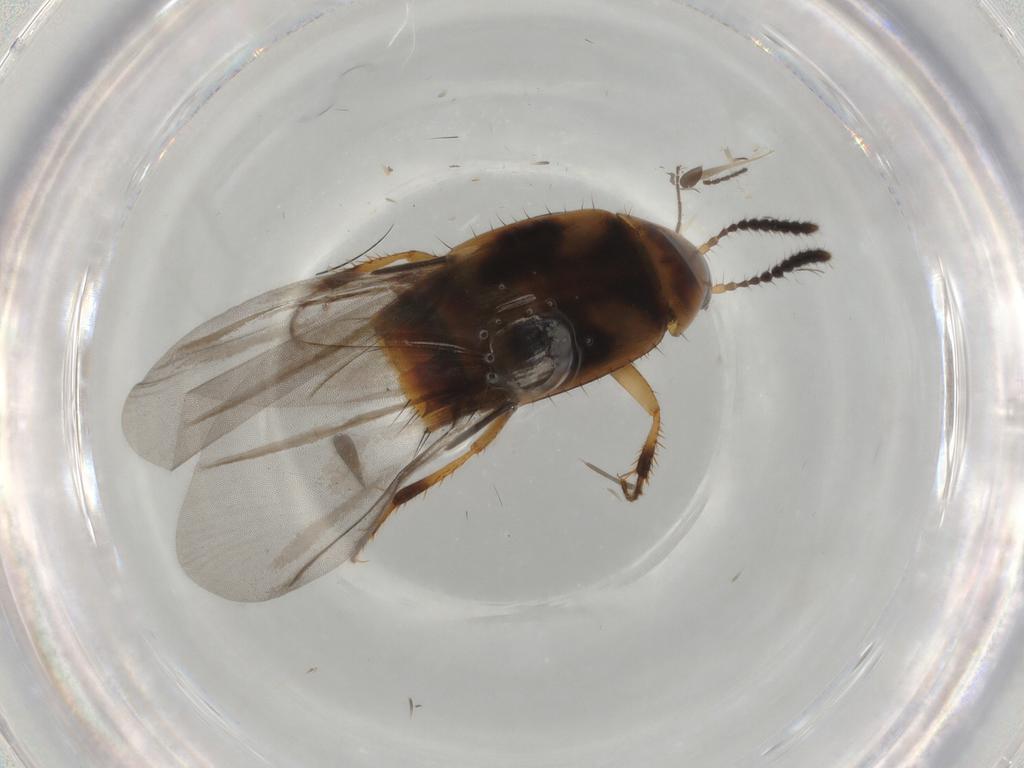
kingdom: Animalia
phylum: Arthropoda
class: Insecta
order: Coleoptera
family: Staphylinidae
